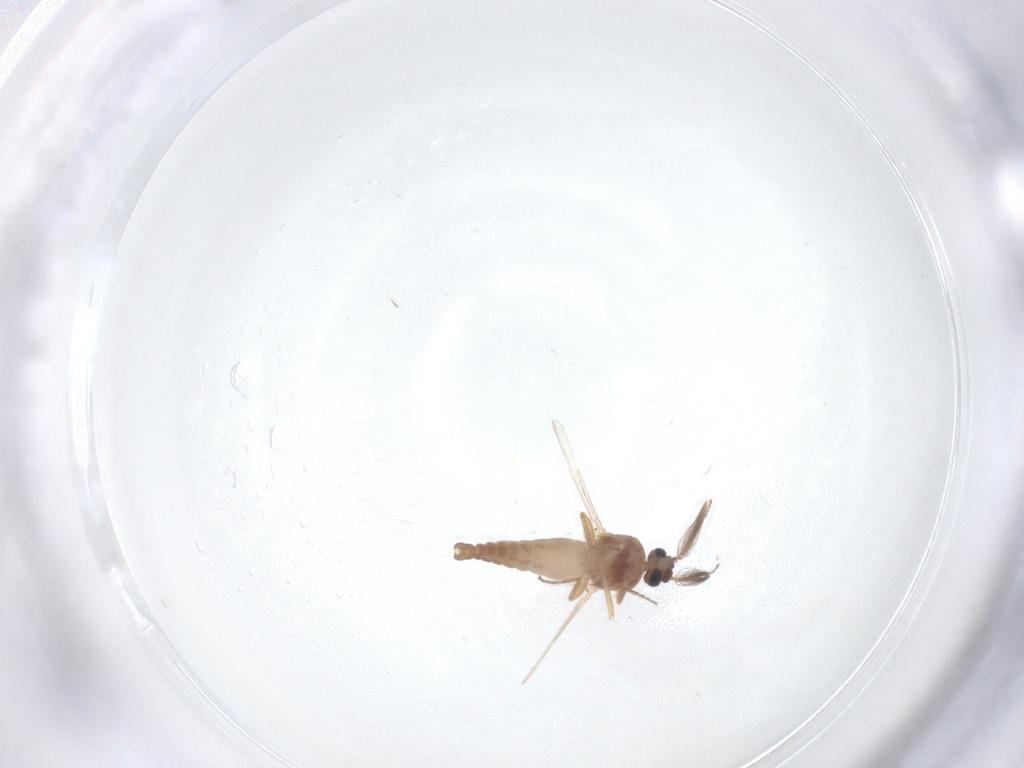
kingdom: Animalia
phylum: Arthropoda
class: Insecta
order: Diptera
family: Ceratopogonidae
